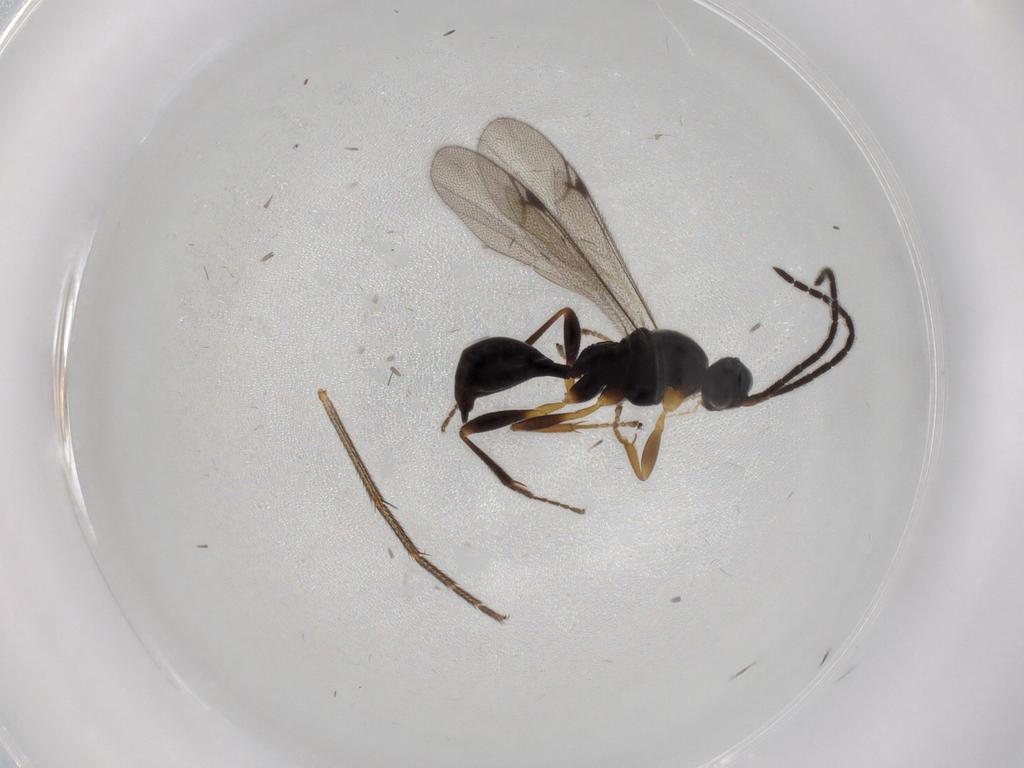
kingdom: Animalia
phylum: Arthropoda
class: Insecta
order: Hymenoptera
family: Proctotrupidae
